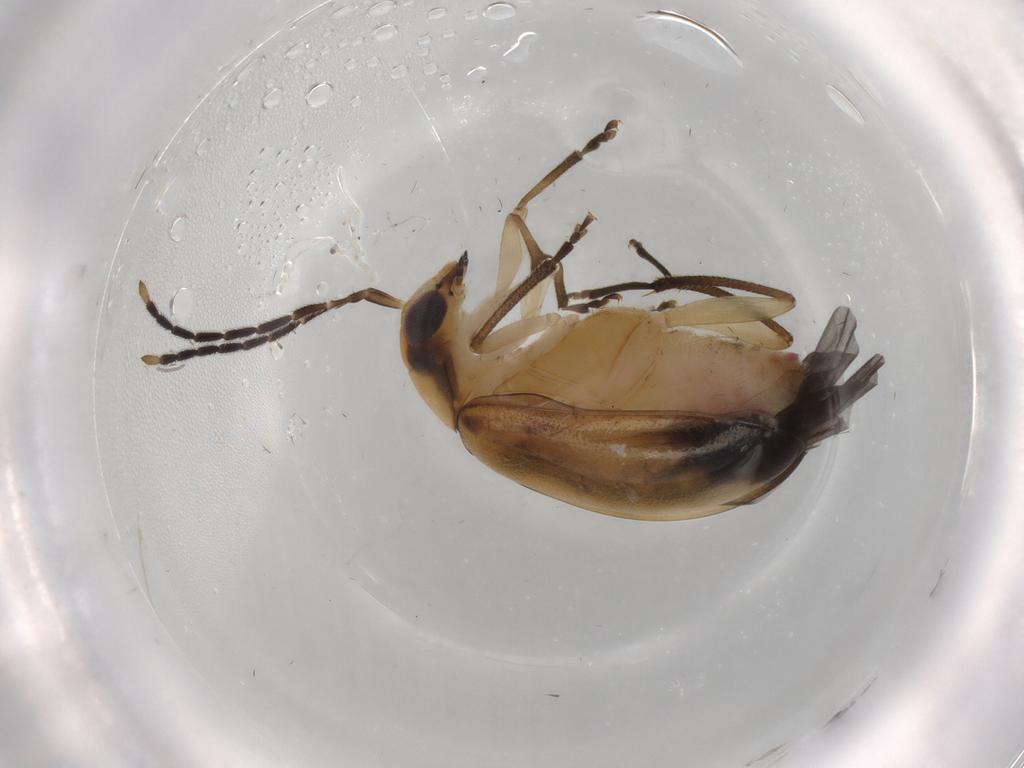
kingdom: Animalia
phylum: Arthropoda
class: Insecta
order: Coleoptera
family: Chrysomelidae
